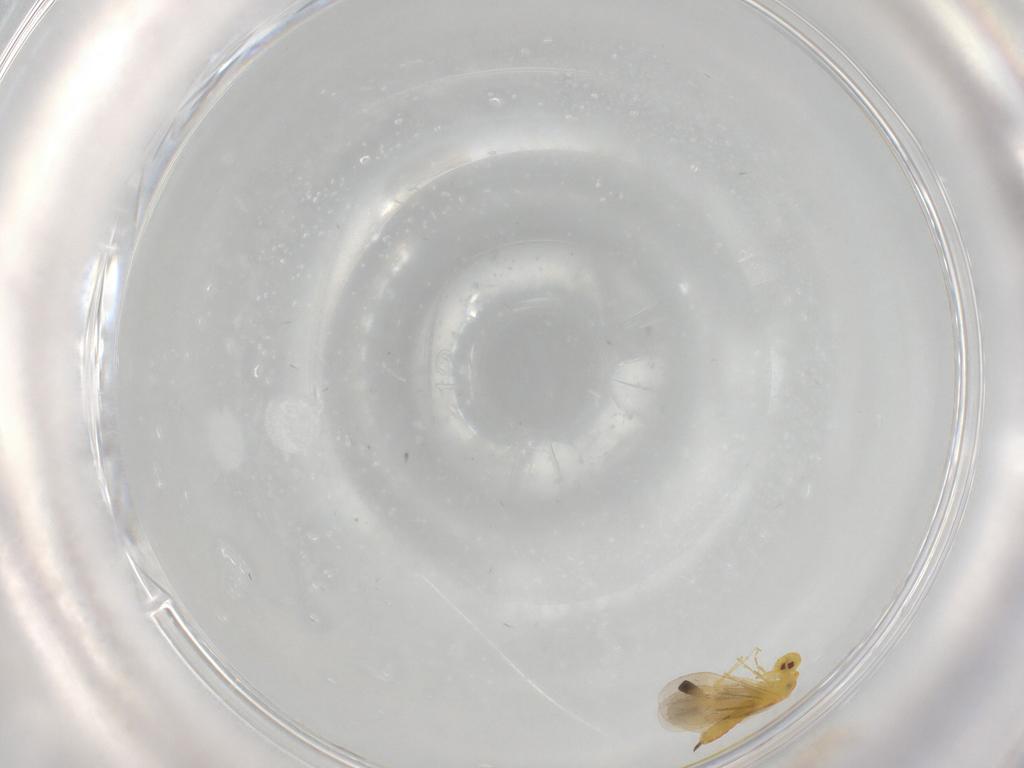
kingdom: Animalia
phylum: Arthropoda
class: Insecta
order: Hemiptera
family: Aleyrodidae
